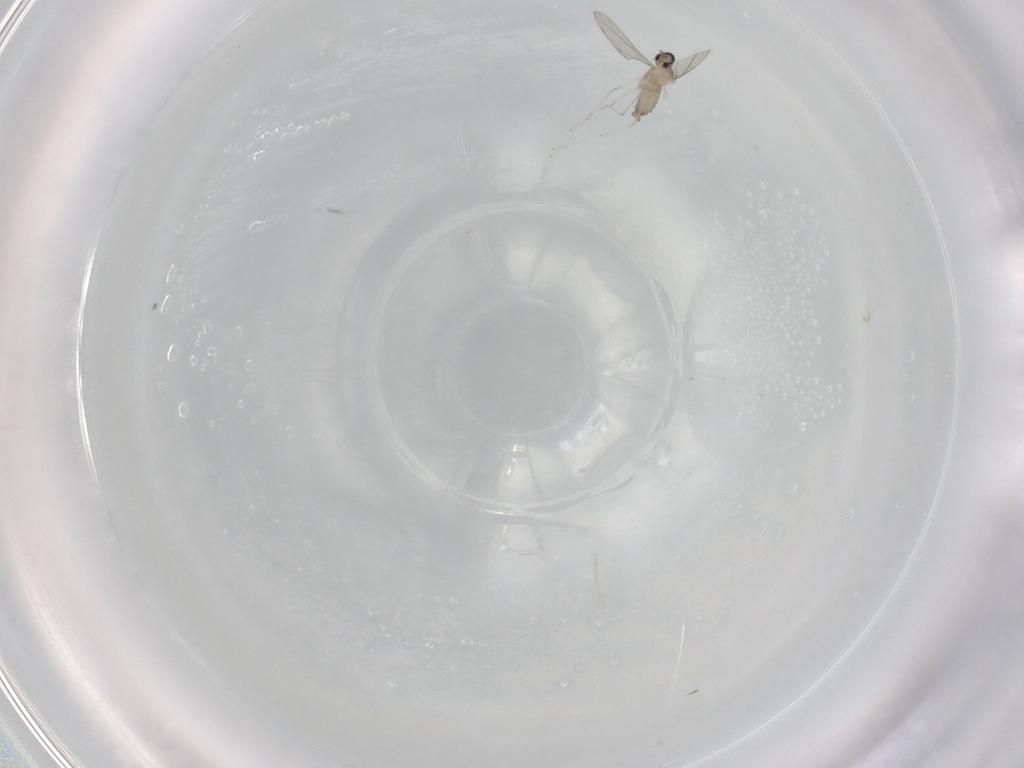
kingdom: Animalia
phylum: Arthropoda
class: Insecta
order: Diptera
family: Cecidomyiidae
